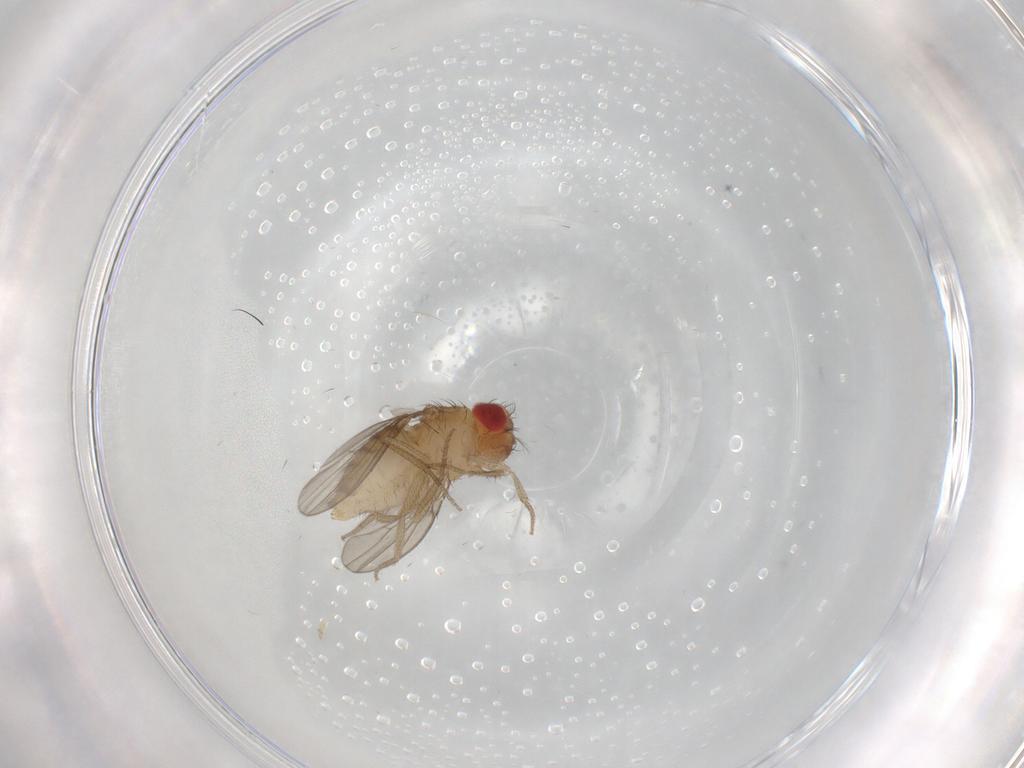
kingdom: Animalia
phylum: Arthropoda
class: Insecta
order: Diptera
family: Drosophilidae
